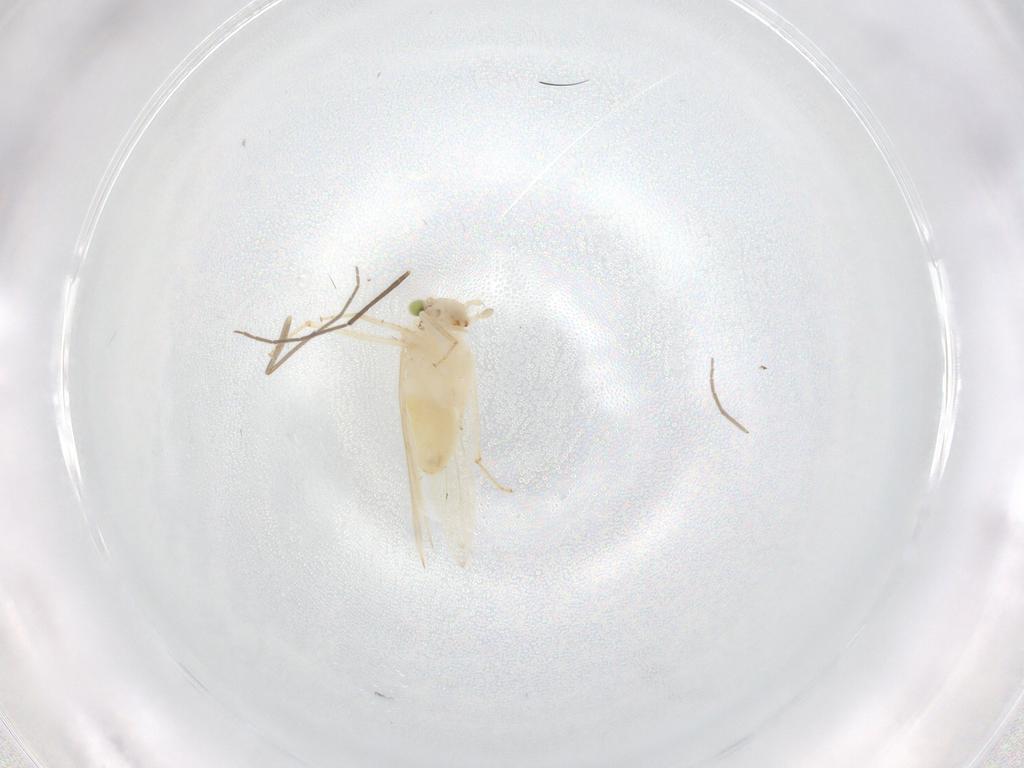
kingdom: Animalia
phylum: Arthropoda
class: Insecta
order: Psocodea
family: Lepidopsocidae
